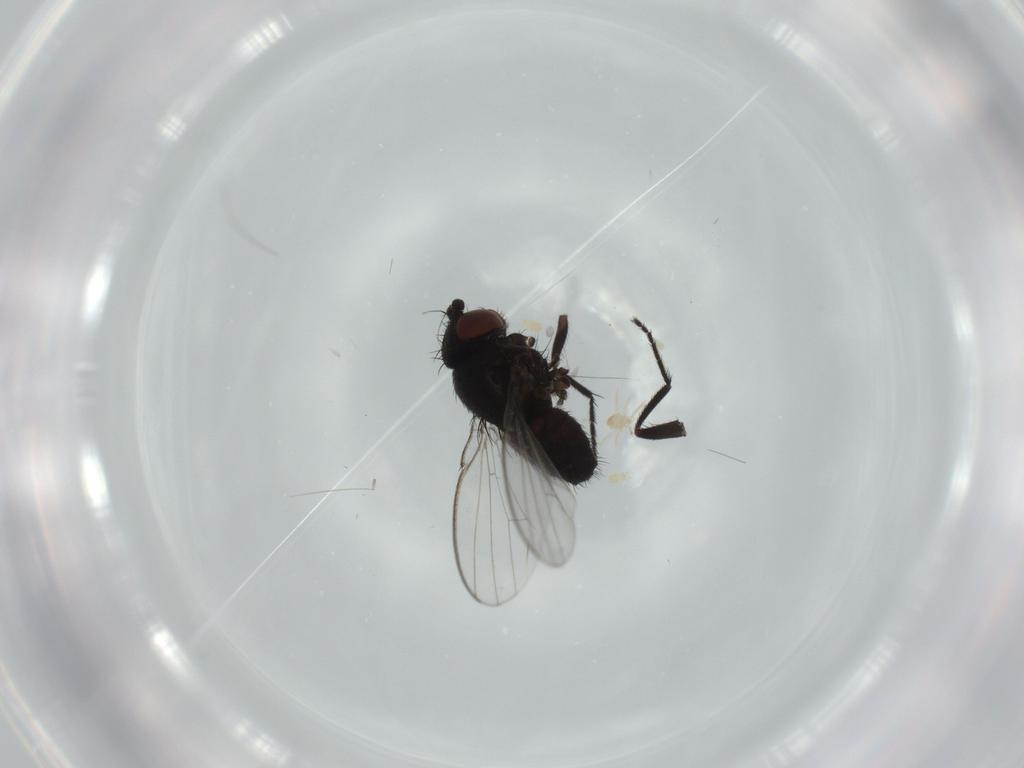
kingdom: Animalia
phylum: Arthropoda
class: Insecta
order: Diptera
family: Milichiidae
